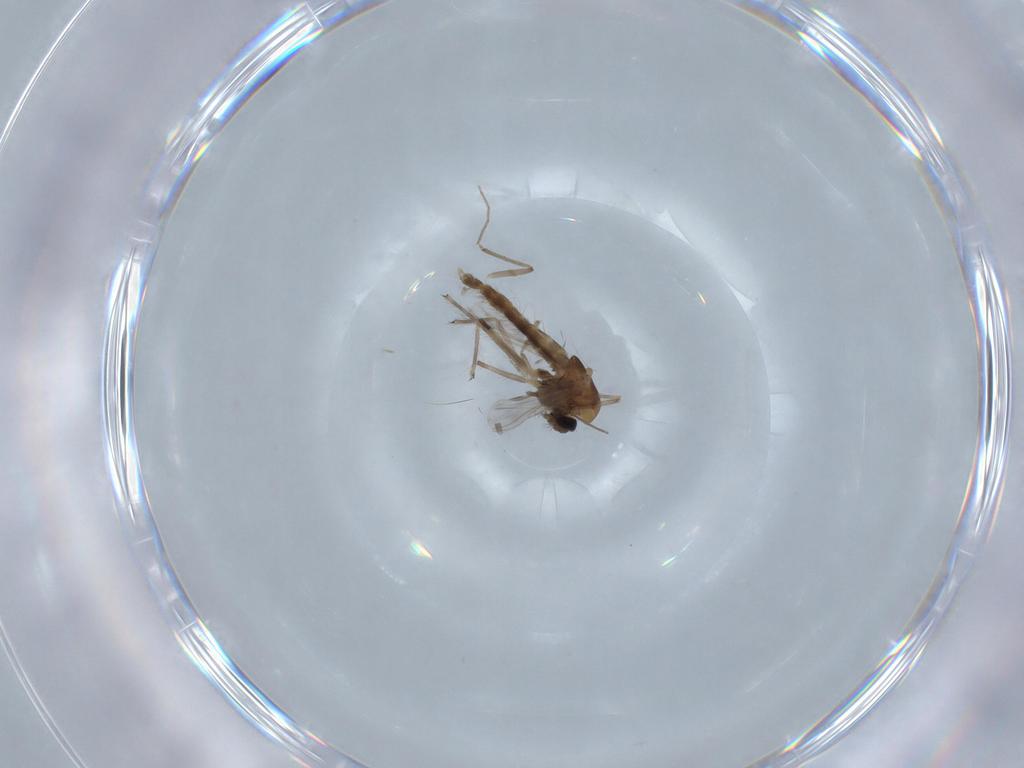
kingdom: Animalia
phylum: Arthropoda
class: Insecta
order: Diptera
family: Chironomidae
